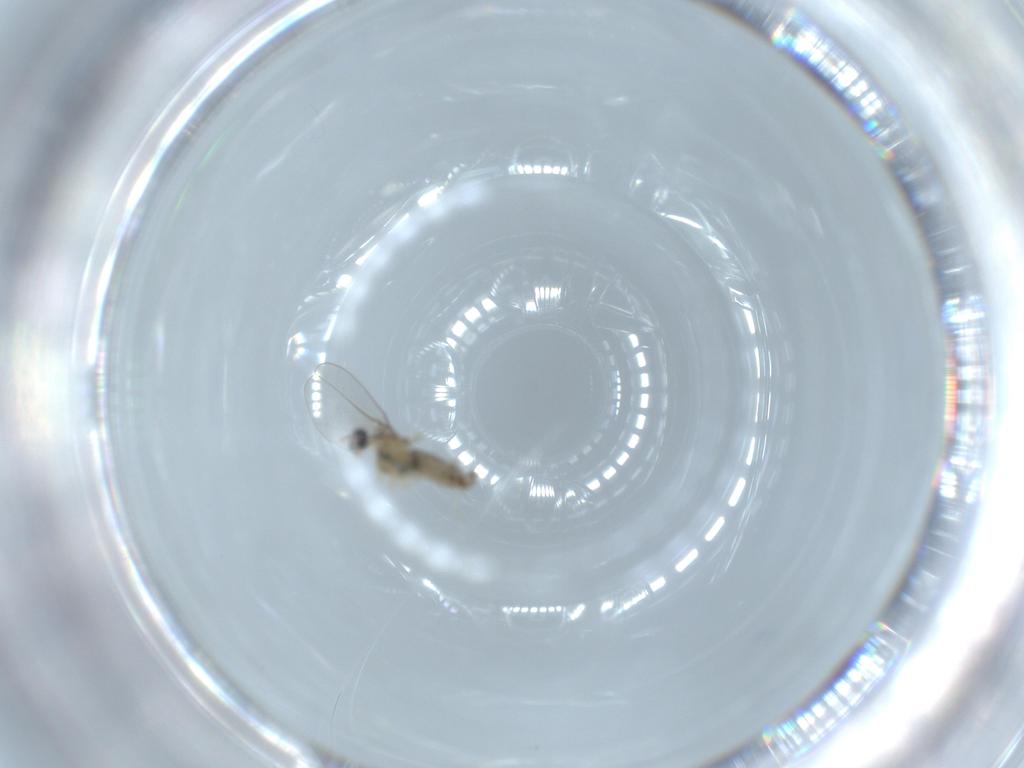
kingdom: Animalia
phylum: Arthropoda
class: Insecta
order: Diptera
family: Cecidomyiidae
